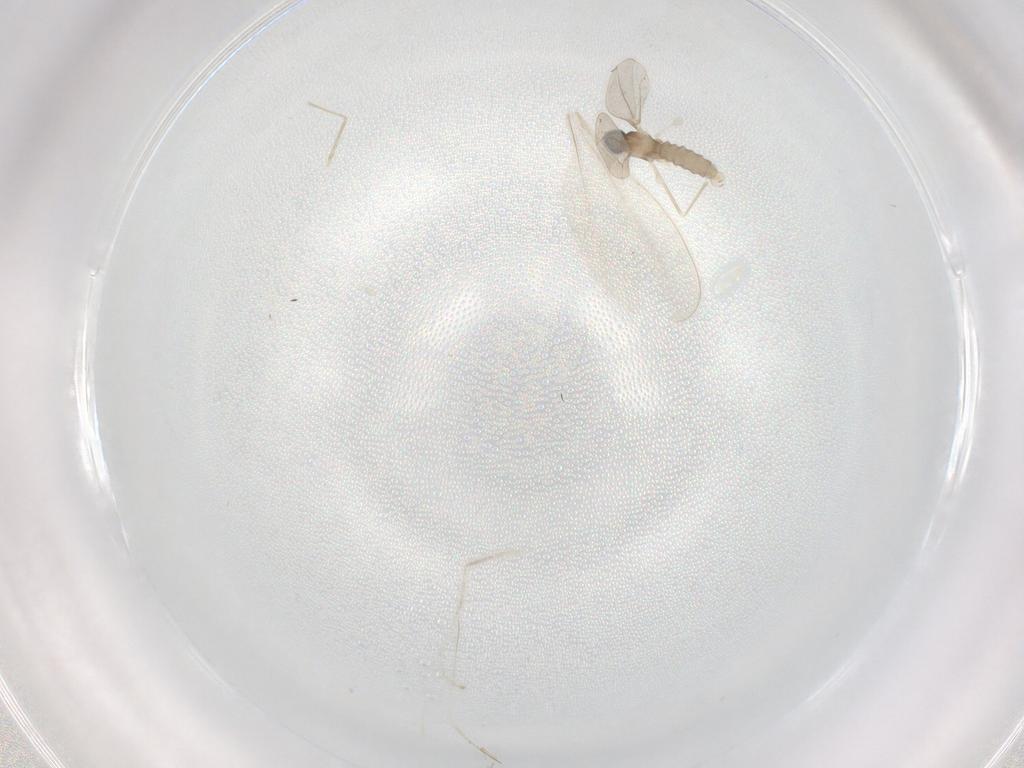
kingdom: Animalia
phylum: Arthropoda
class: Insecta
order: Diptera
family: Cecidomyiidae
